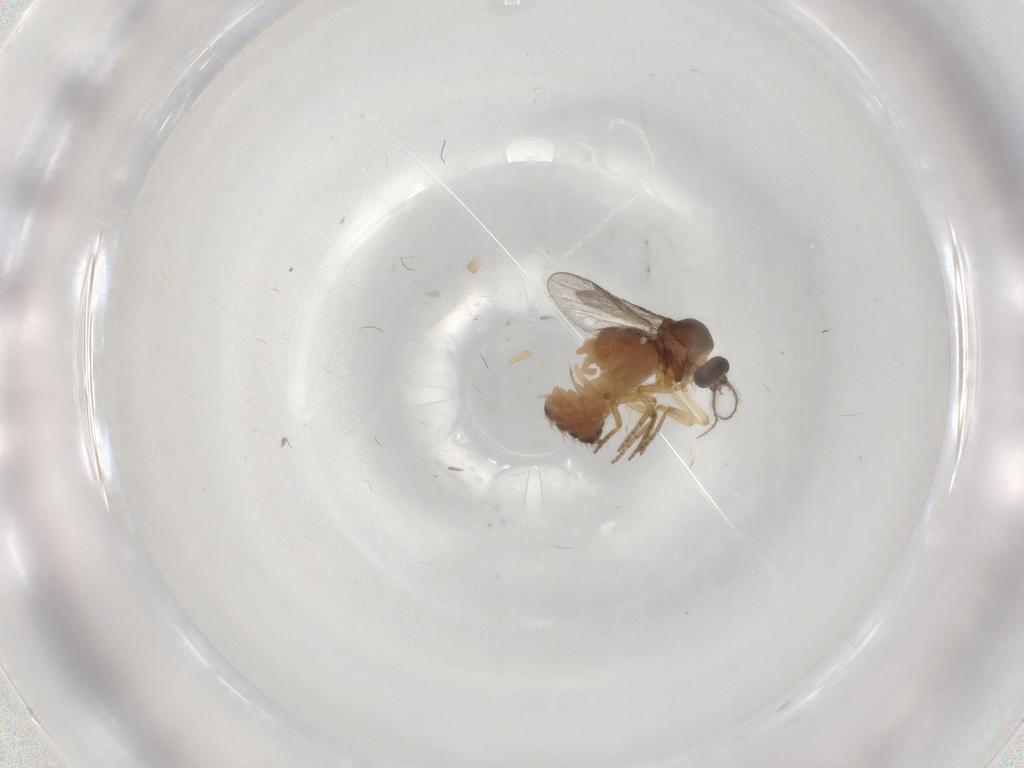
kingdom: Animalia
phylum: Arthropoda
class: Insecta
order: Diptera
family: Ceratopogonidae
